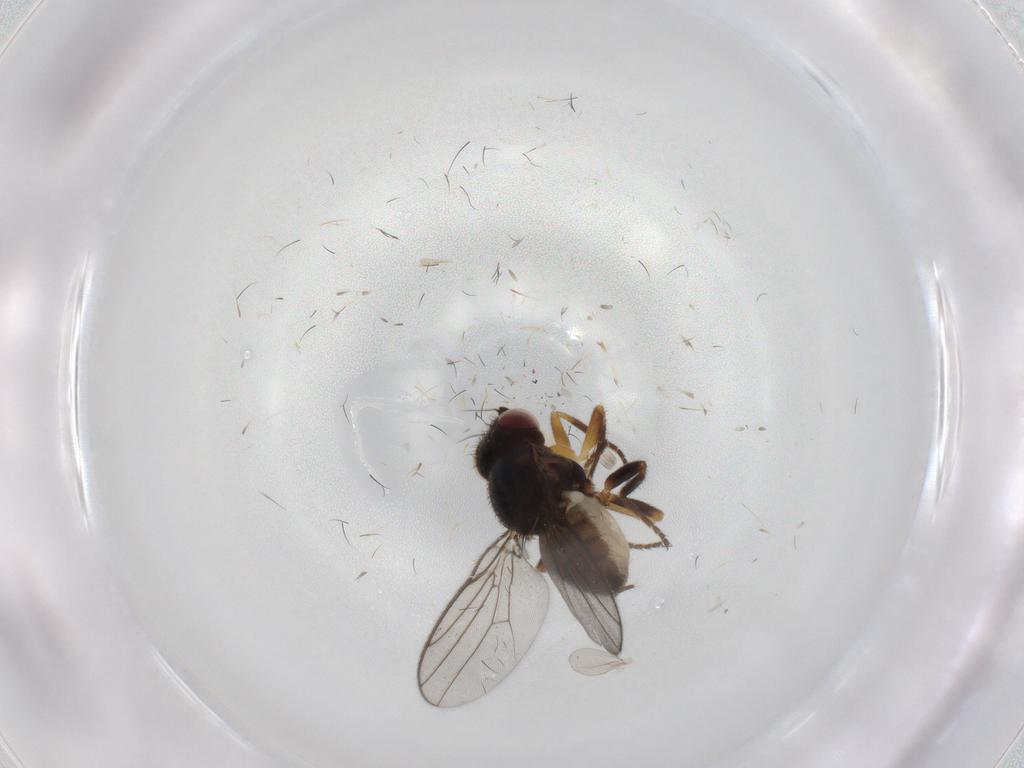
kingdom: Animalia
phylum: Arthropoda
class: Insecta
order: Diptera
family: Chloropidae
